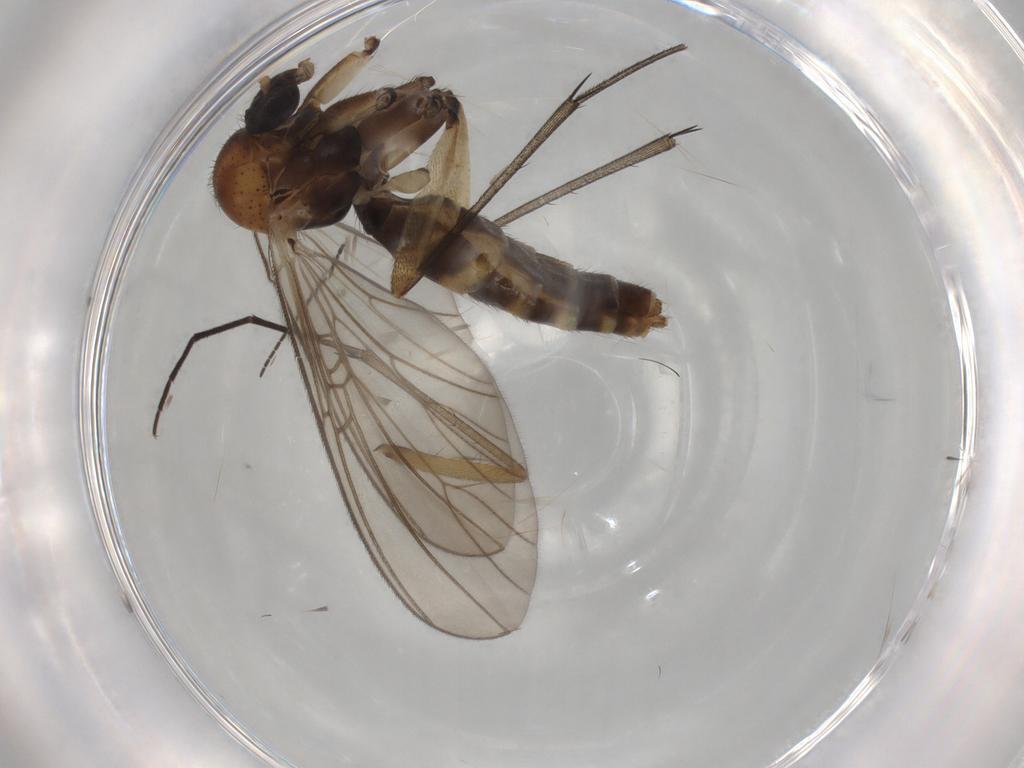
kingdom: Animalia
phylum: Arthropoda
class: Insecta
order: Diptera
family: Mycetophilidae
